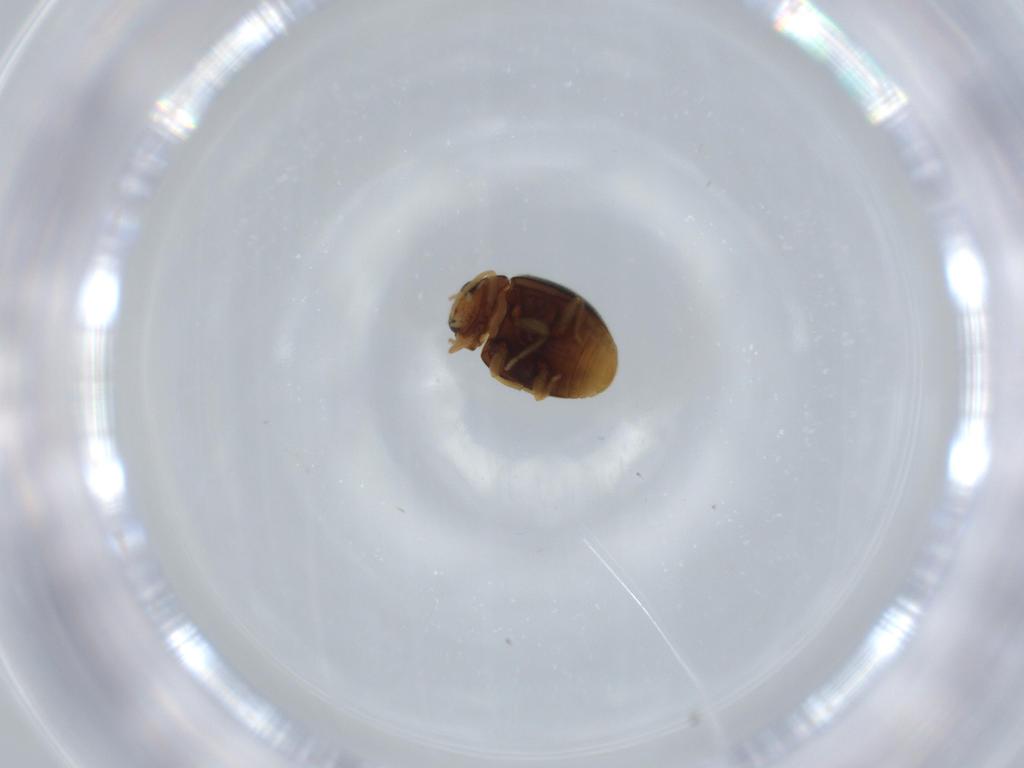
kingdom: Animalia
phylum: Arthropoda
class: Insecta
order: Coleoptera
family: Coccinellidae
